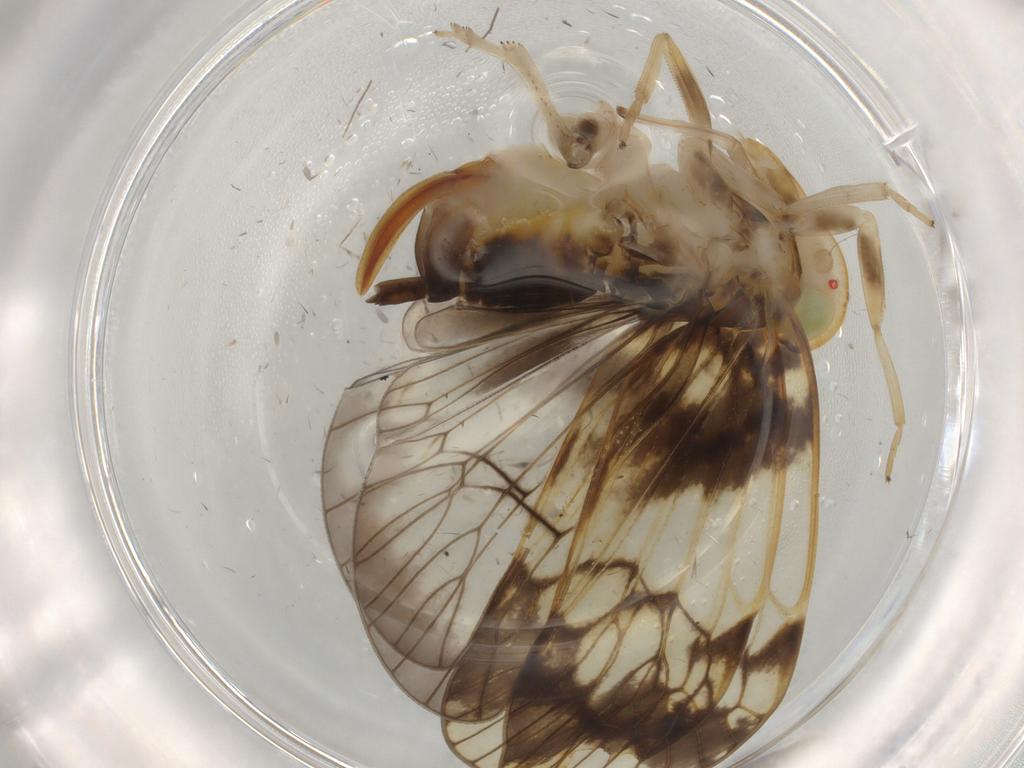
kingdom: Animalia
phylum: Arthropoda
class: Insecta
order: Hemiptera
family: Cixiidae
